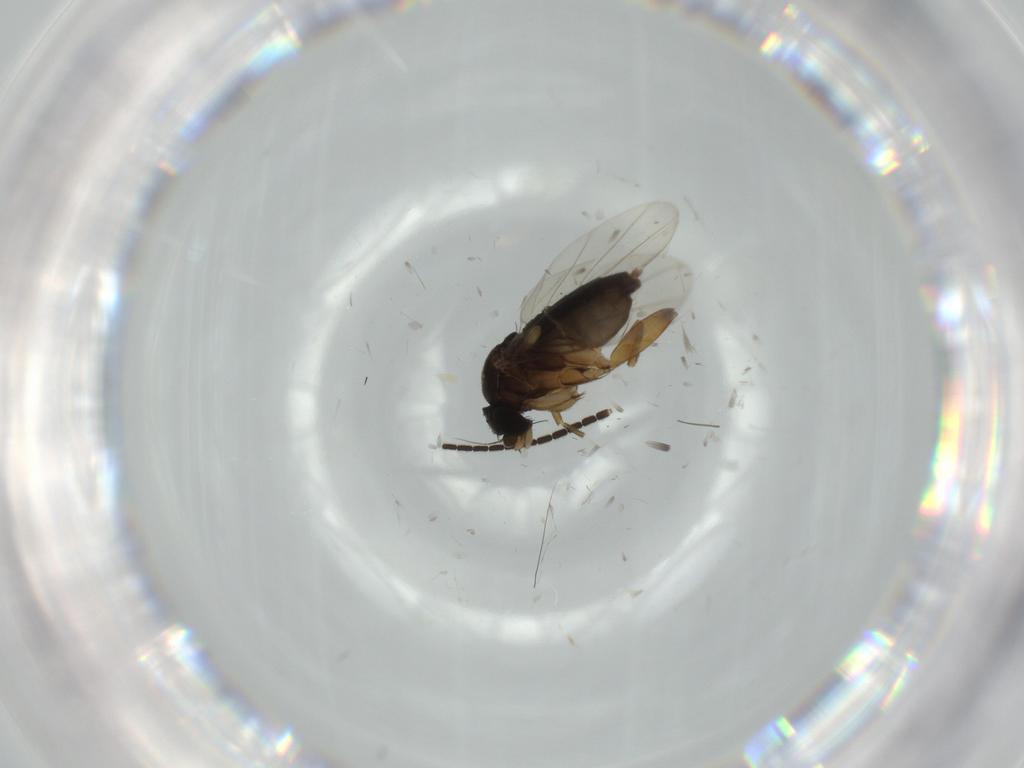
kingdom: Animalia
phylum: Arthropoda
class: Insecta
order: Diptera
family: Phoridae
